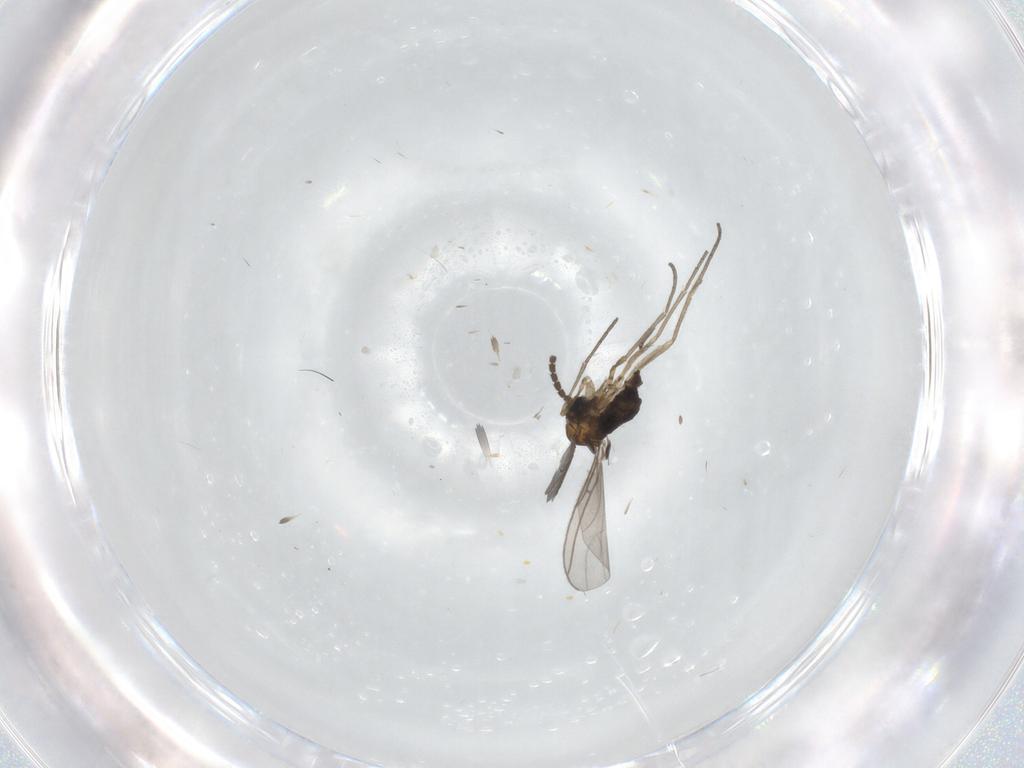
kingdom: Animalia
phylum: Arthropoda
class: Insecta
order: Diptera
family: Sciaridae
